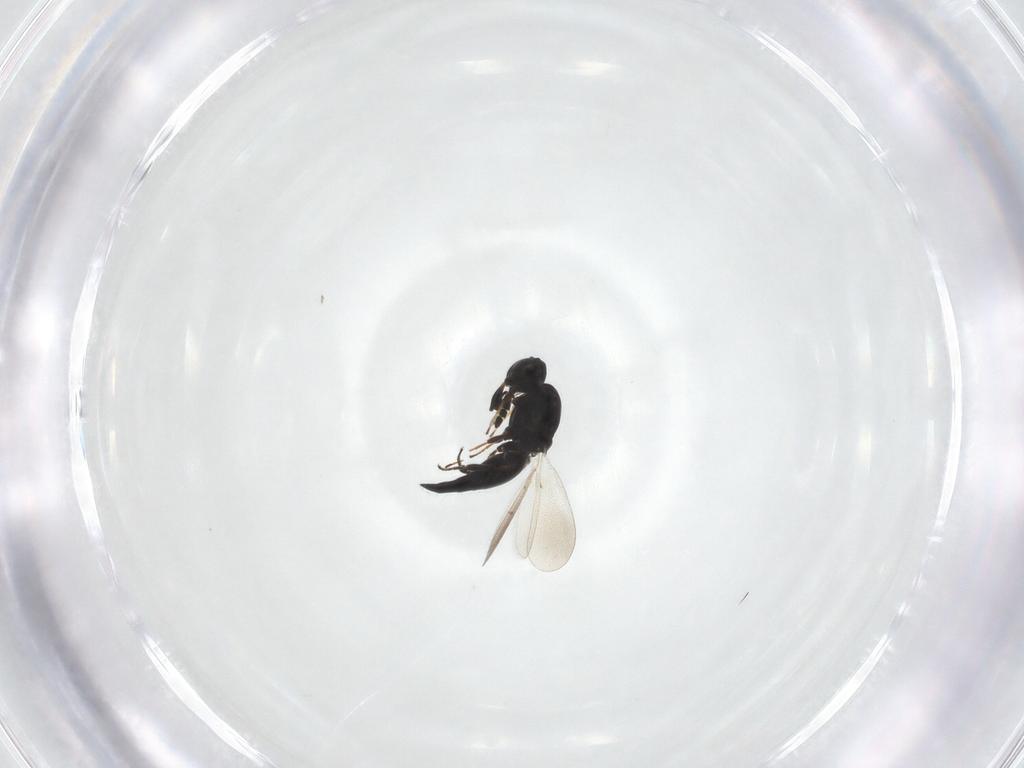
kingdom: Animalia
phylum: Arthropoda
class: Insecta
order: Hymenoptera
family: Platygastridae
